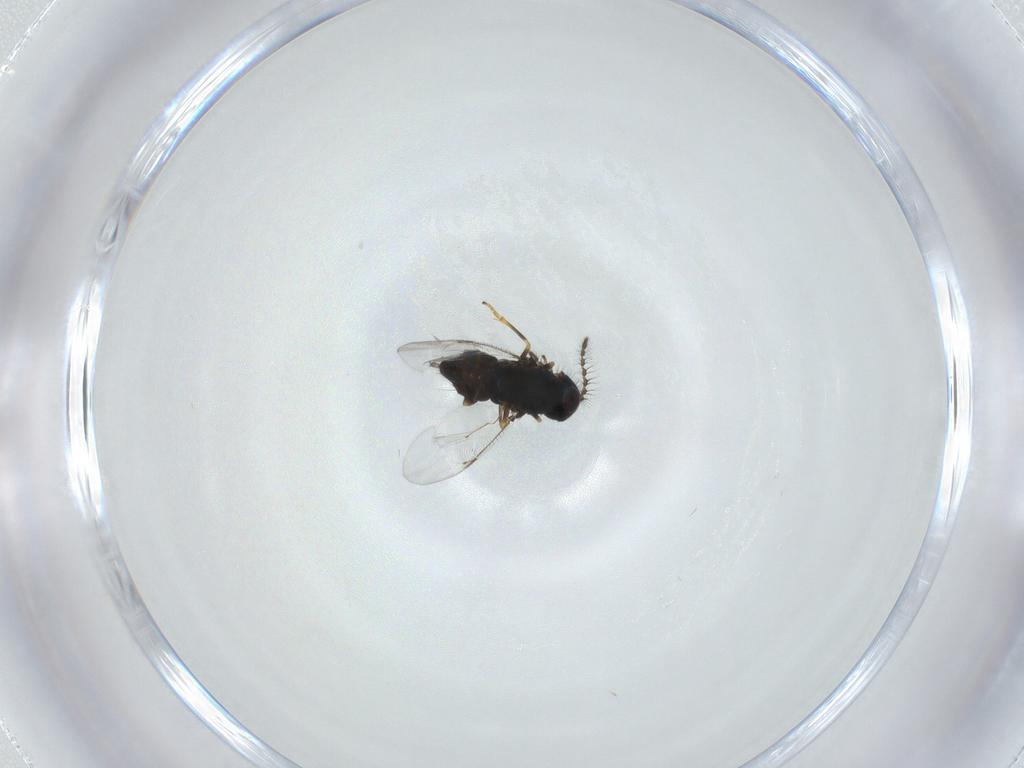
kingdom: Animalia
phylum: Arthropoda
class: Insecta
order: Hymenoptera
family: Encyrtidae
